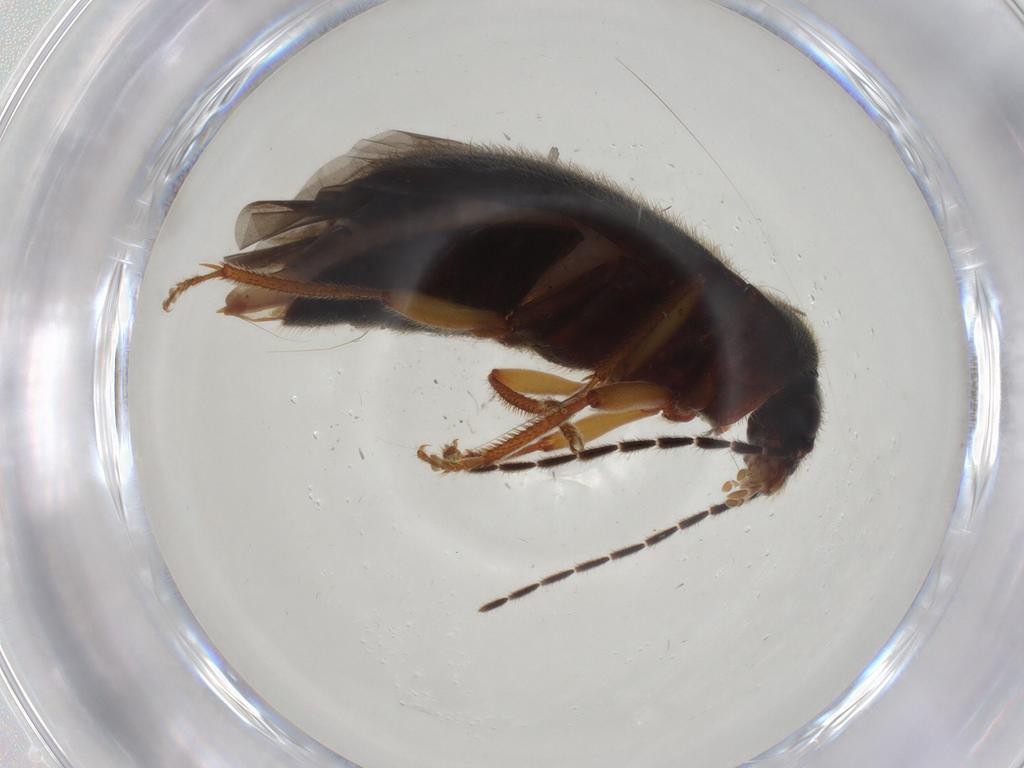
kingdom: Animalia
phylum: Arthropoda
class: Insecta
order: Coleoptera
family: Ptilodactylidae
